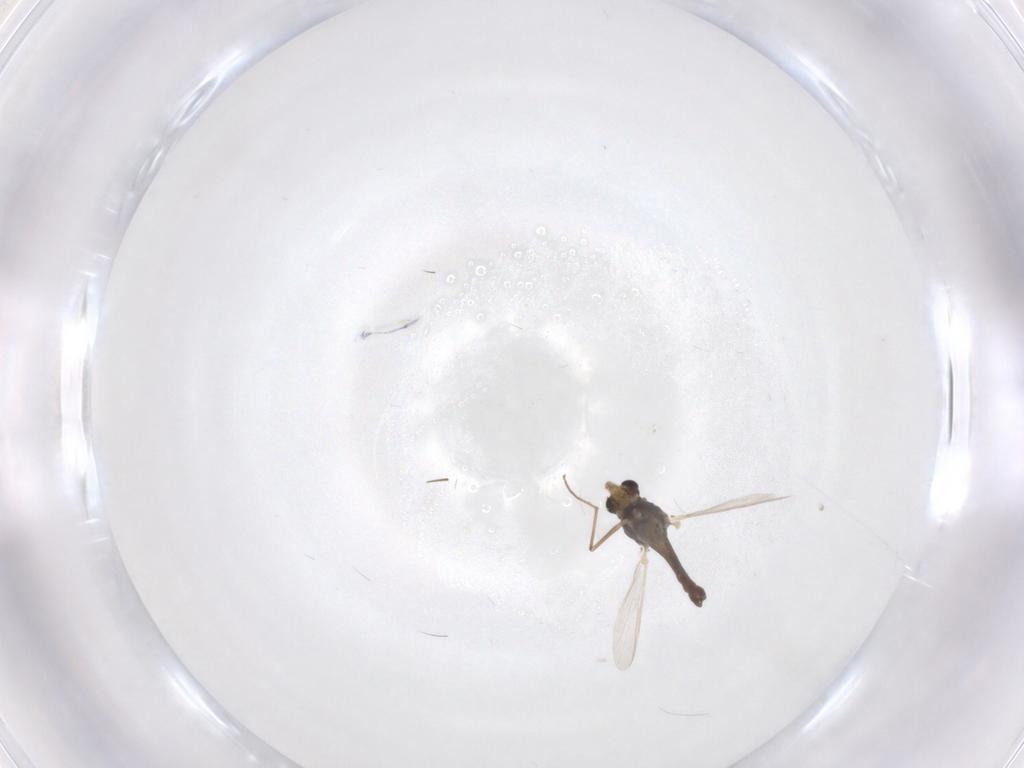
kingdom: Animalia
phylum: Arthropoda
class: Insecta
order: Diptera
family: Chironomidae
